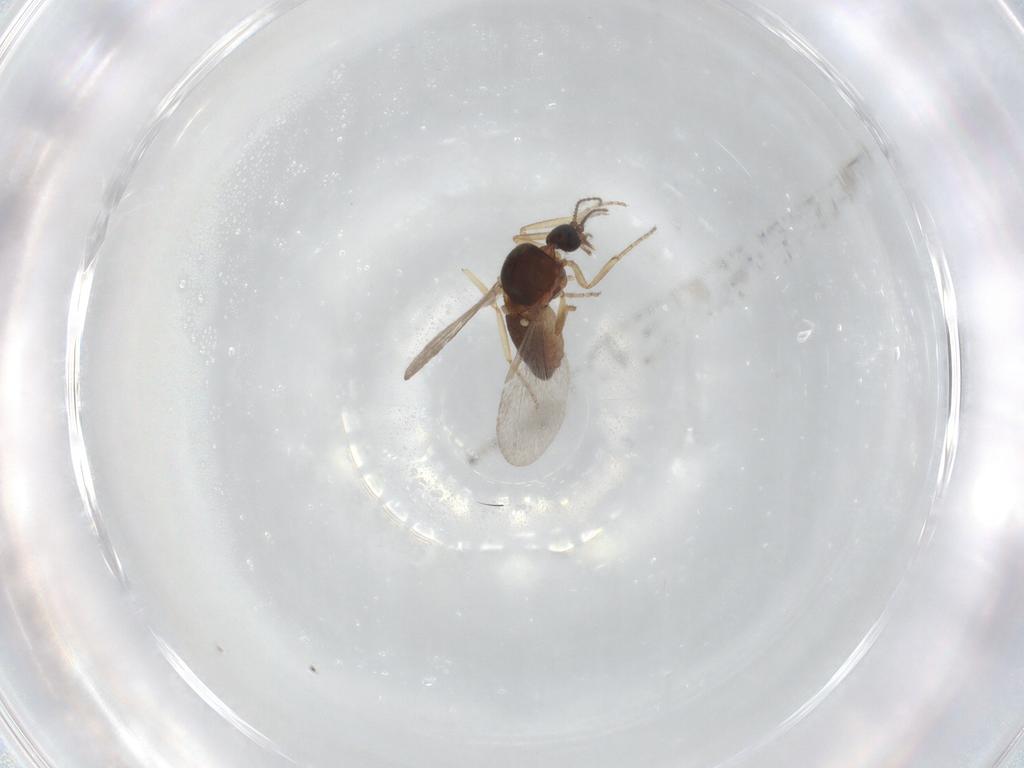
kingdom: Animalia
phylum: Arthropoda
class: Insecta
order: Diptera
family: Ceratopogonidae
